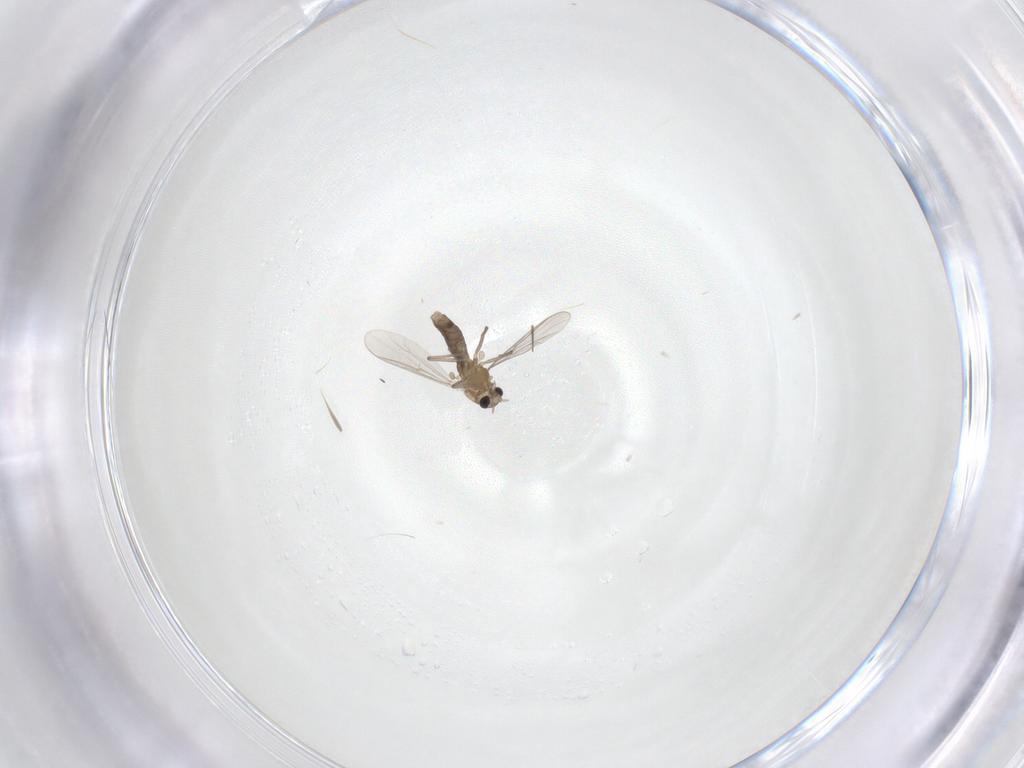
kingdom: Animalia
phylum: Arthropoda
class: Insecta
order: Diptera
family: Chironomidae
